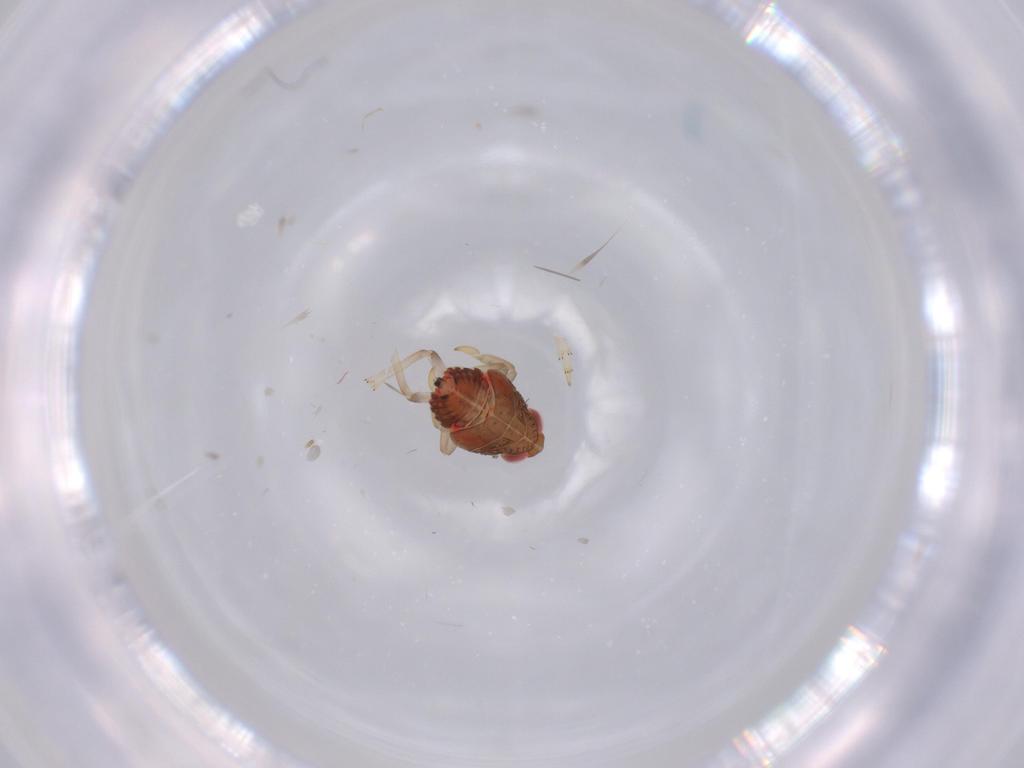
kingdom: Animalia
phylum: Arthropoda
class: Insecta
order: Hemiptera
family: Issidae
